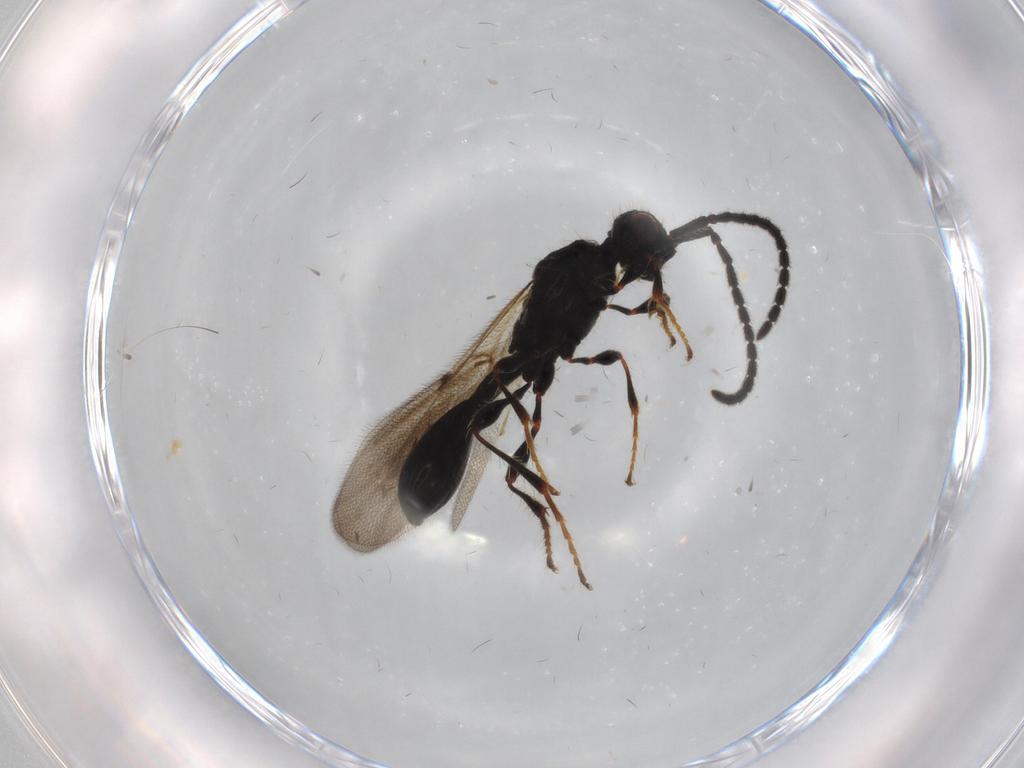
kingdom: Animalia
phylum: Arthropoda
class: Insecta
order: Hymenoptera
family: Diapriidae
